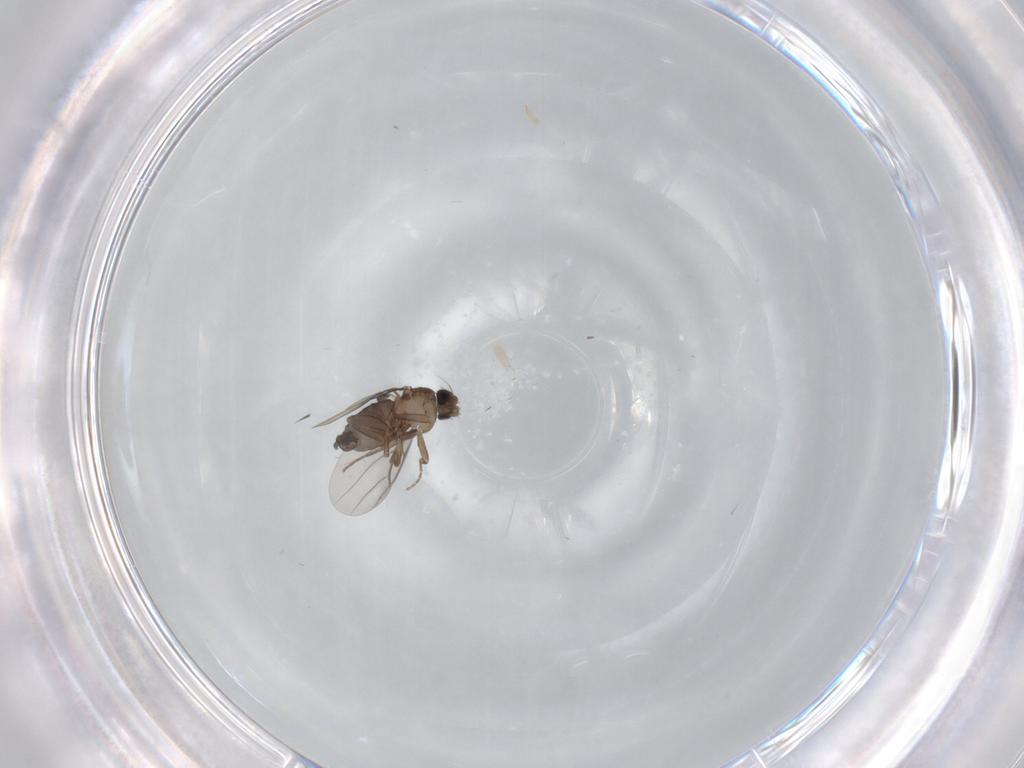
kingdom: Animalia
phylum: Arthropoda
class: Insecta
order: Diptera
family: Phoridae
